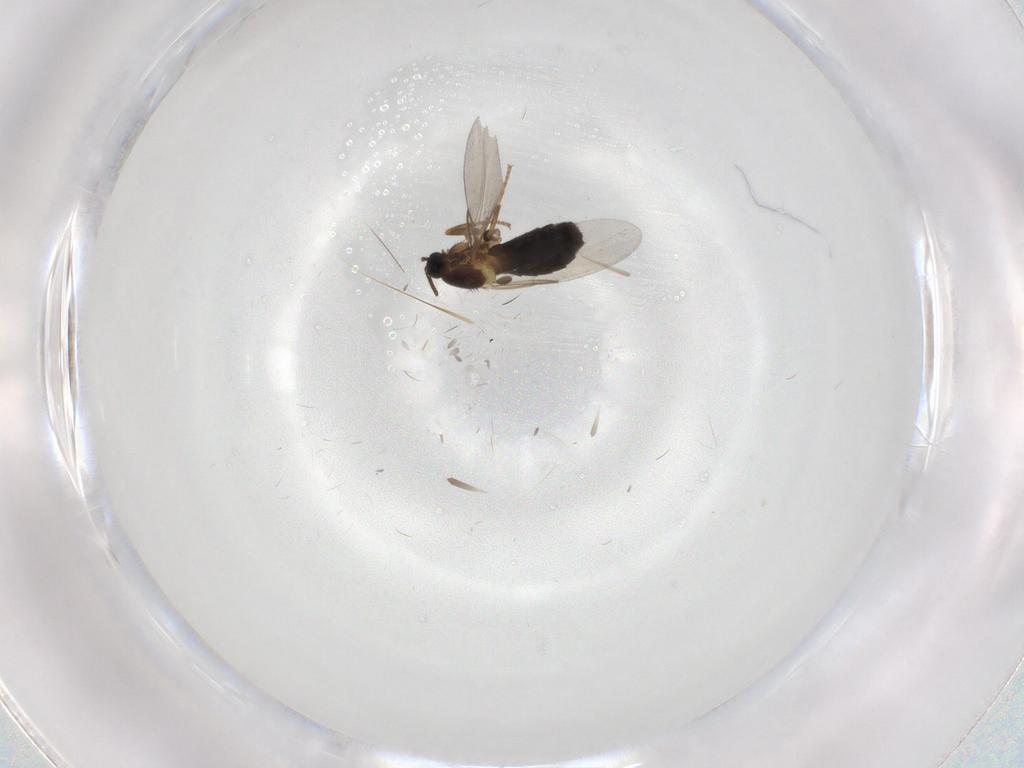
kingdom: Animalia
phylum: Arthropoda
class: Insecta
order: Diptera
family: Scatopsidae
